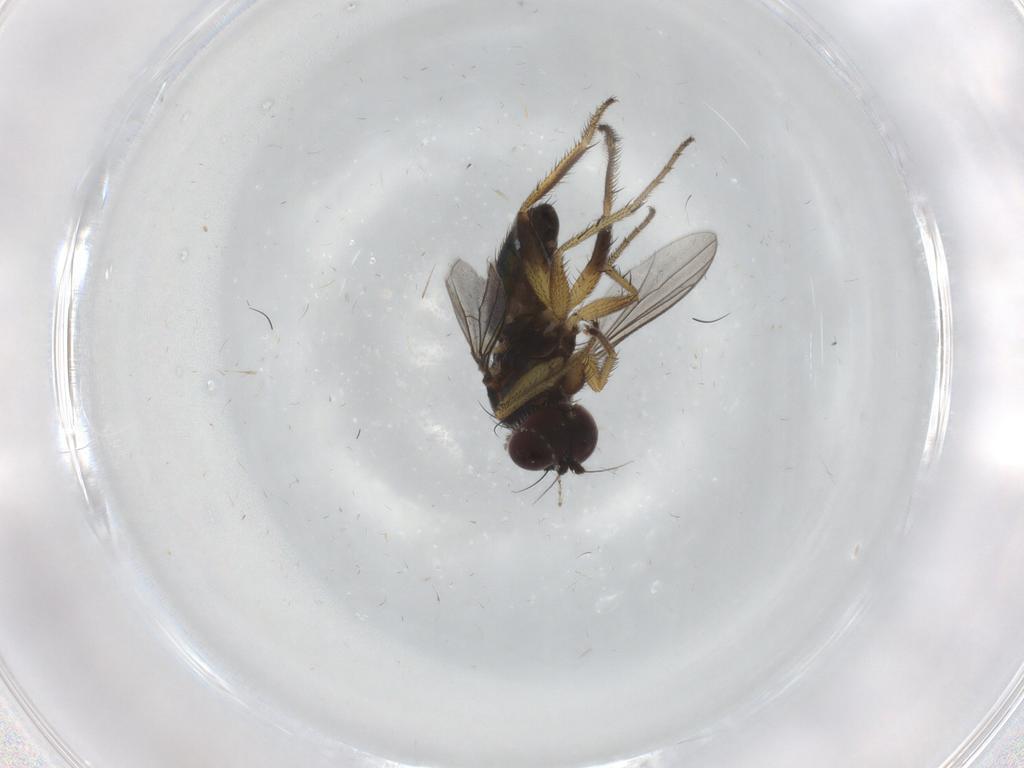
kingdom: Animalia
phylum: Arthropoda
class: Insecta
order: Diptera
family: Dolichopodidae
